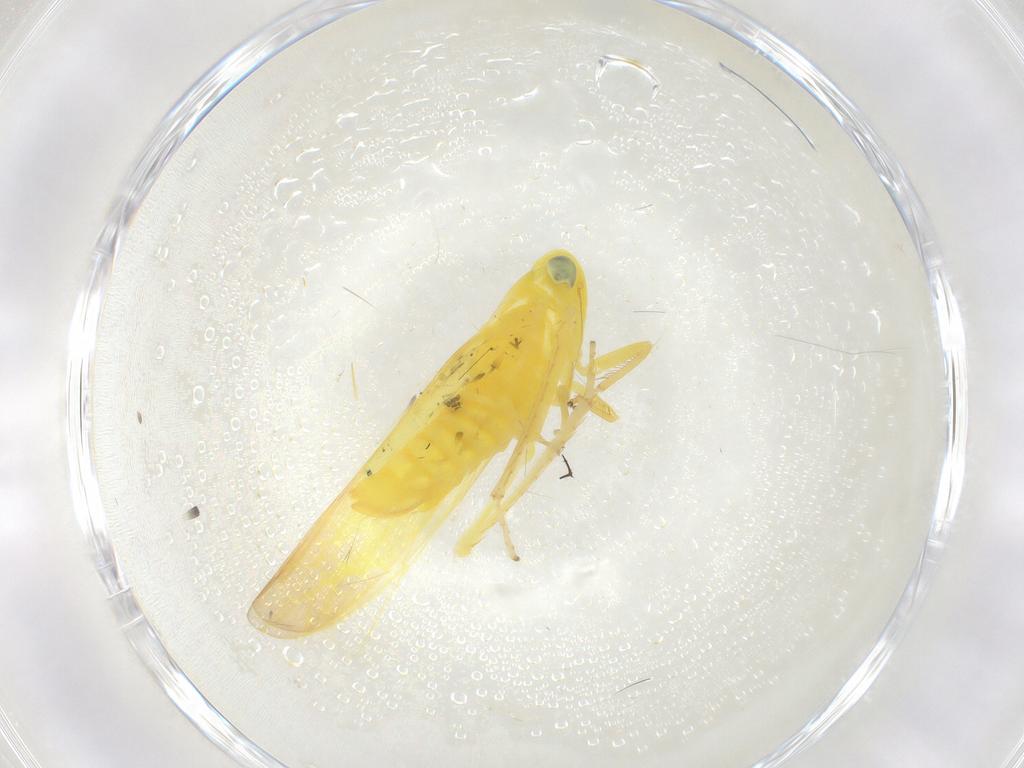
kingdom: Animalia
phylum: Arthropoda
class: Insecta
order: Hemiptera
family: Cicadellidae
